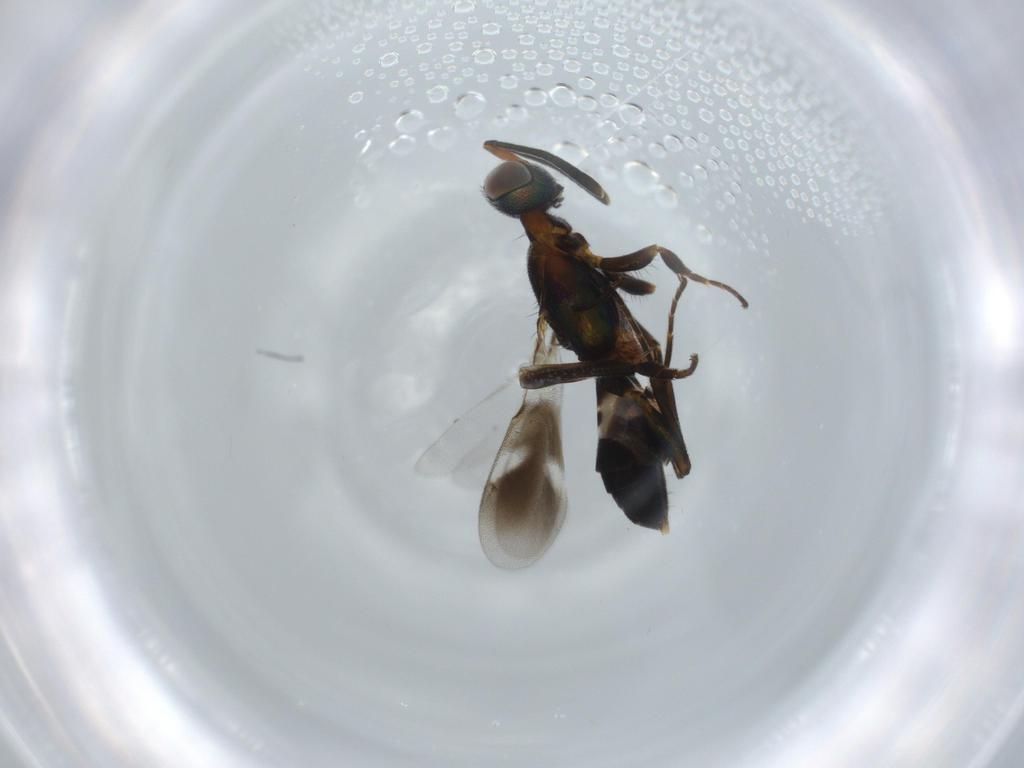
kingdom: Animalia
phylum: Arthropoda
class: Insecta
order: Hymenoptera
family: Eupelmidae
